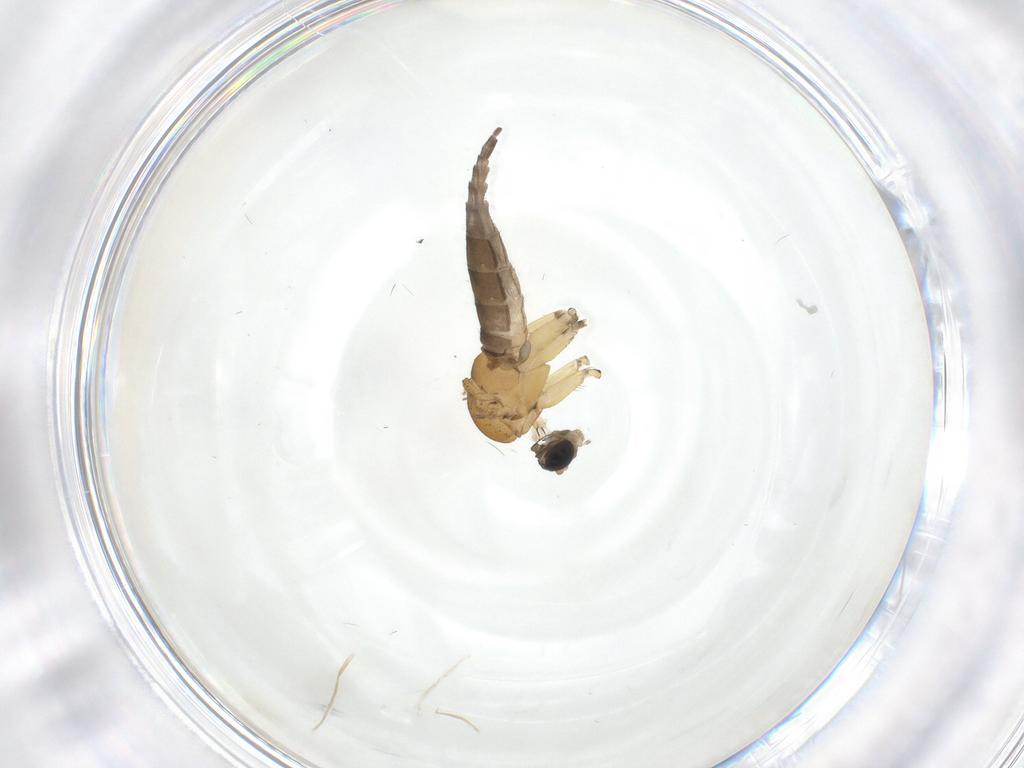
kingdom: Animalia
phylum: Arthropoda
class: Insecta
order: Diptera
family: Sciaridae
